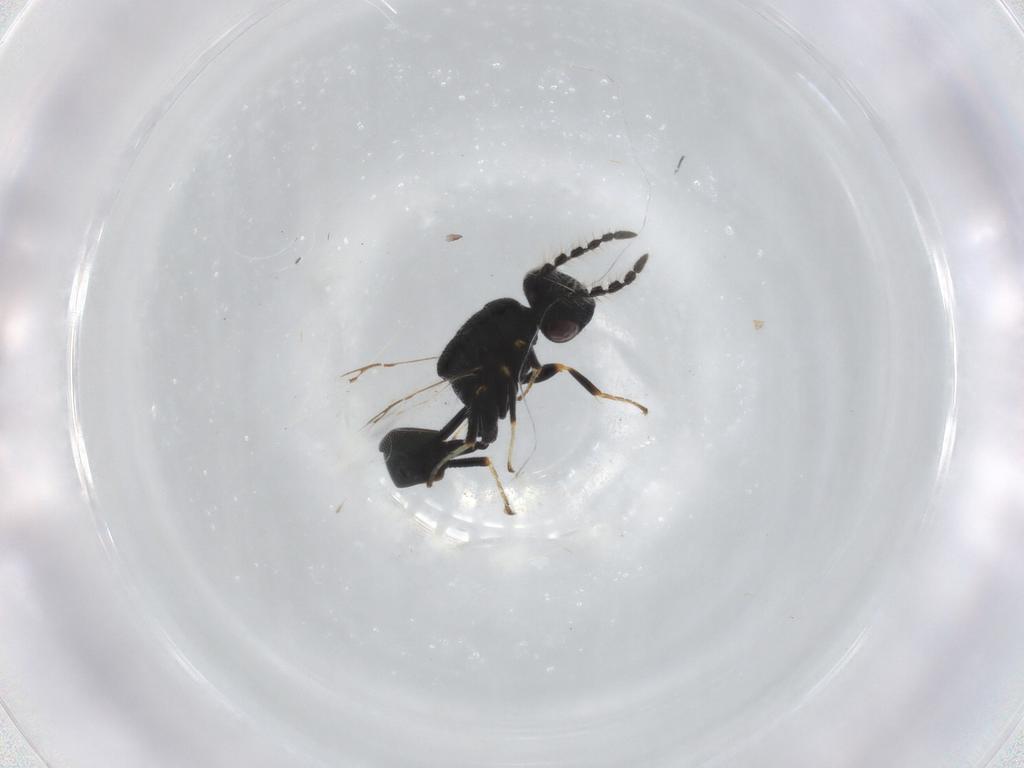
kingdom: Animalia
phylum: Arthropoda
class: Insecta
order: Hymenoptera
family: Eurytomidae
